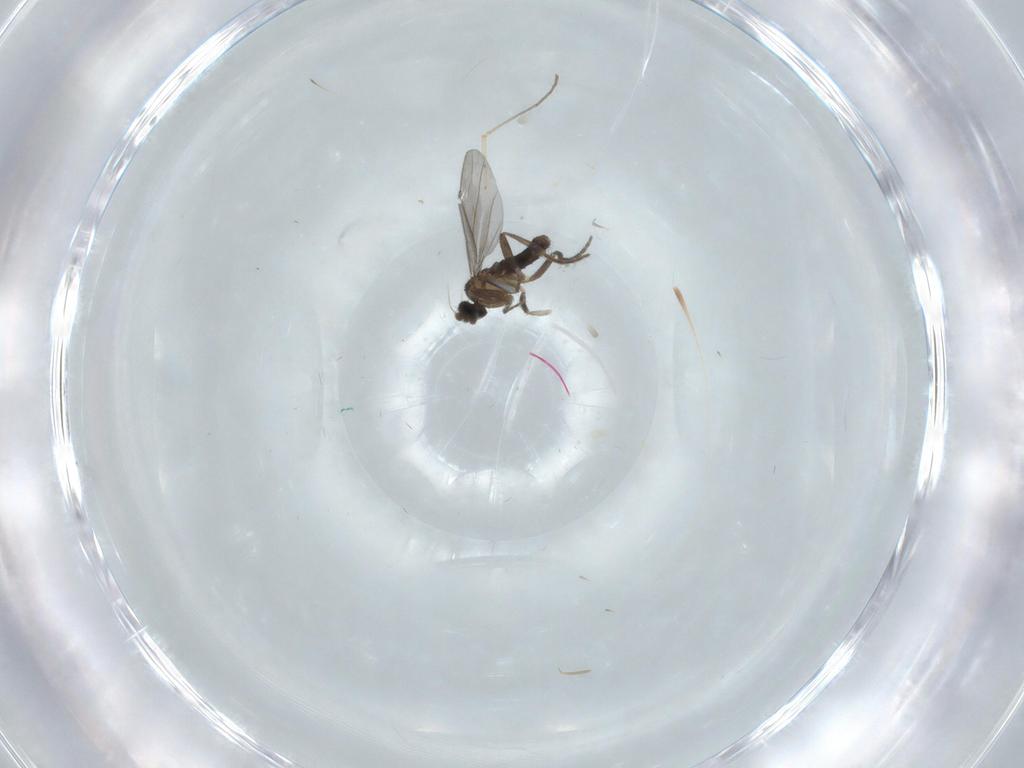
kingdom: Animalia
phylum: Arthropoda
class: Insecta
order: Diptera
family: Phoridae
